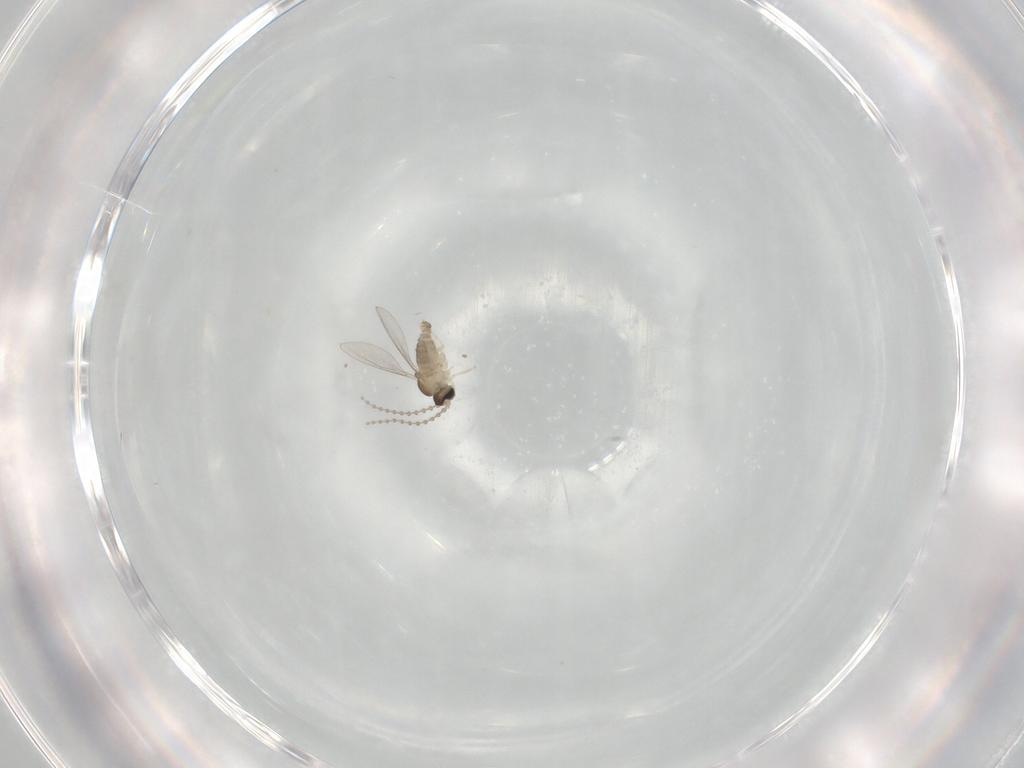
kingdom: Animalia
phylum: Arthropoda
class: Insecta
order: Diptera
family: Cecidomyiidae
